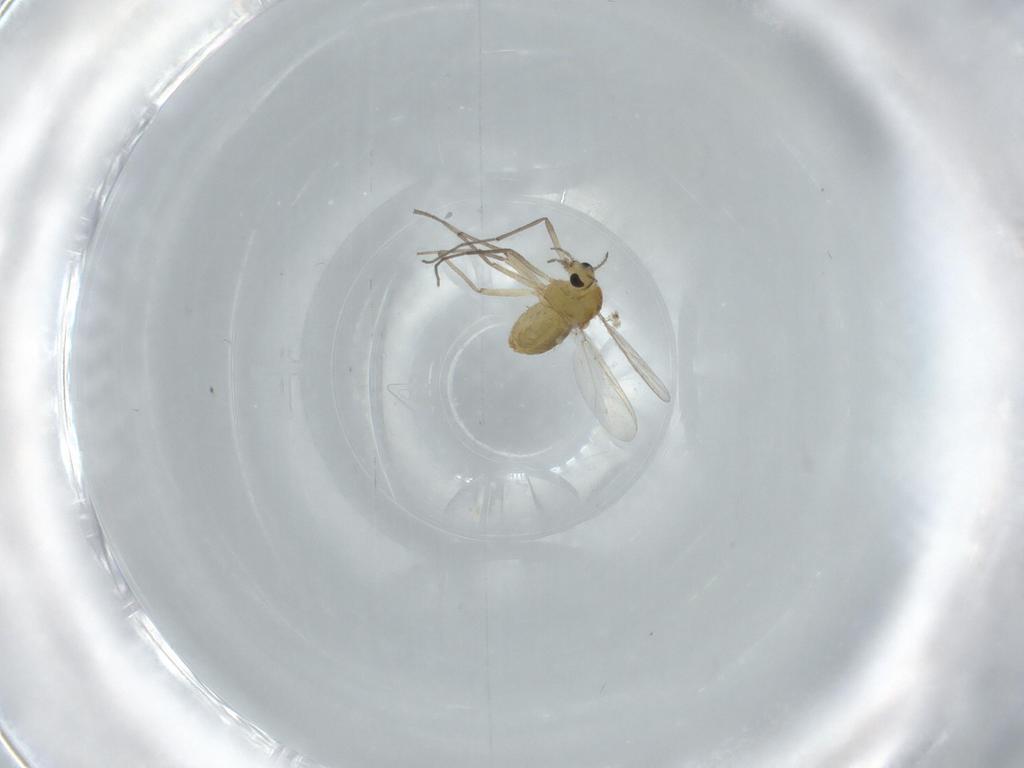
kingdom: Animalia
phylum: Arthropoda
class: Insecta
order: Diptera
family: Chironomidae
